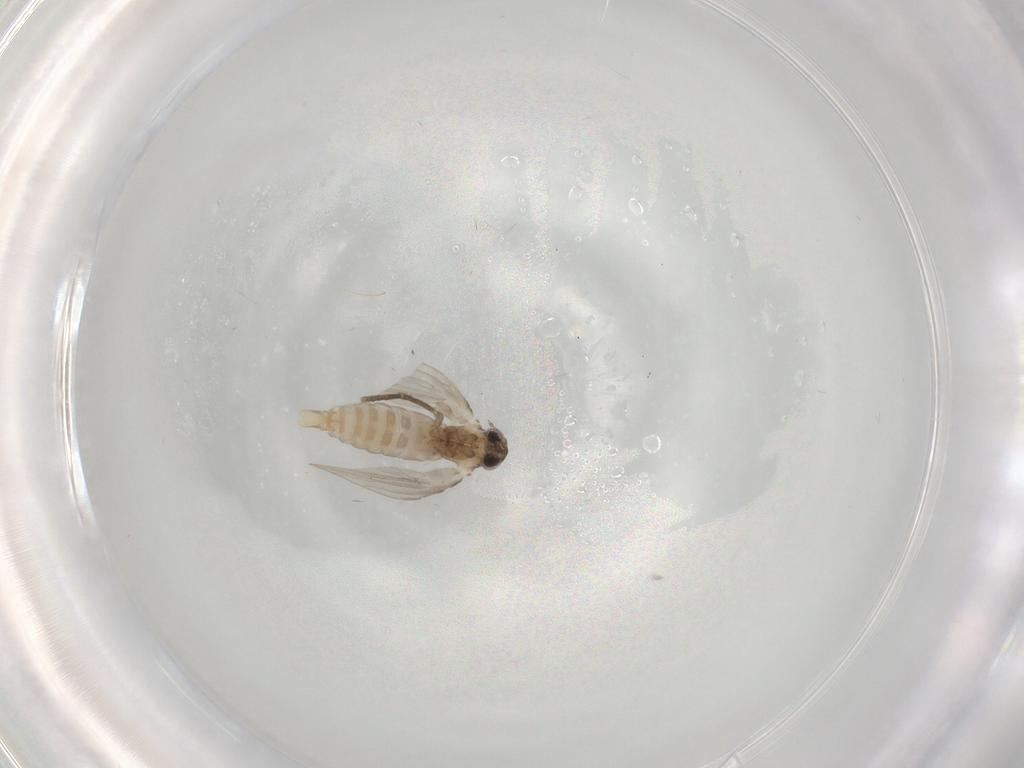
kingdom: Animalia
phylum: Arthropoda
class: Insecta
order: Diptera
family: Psychodidae
